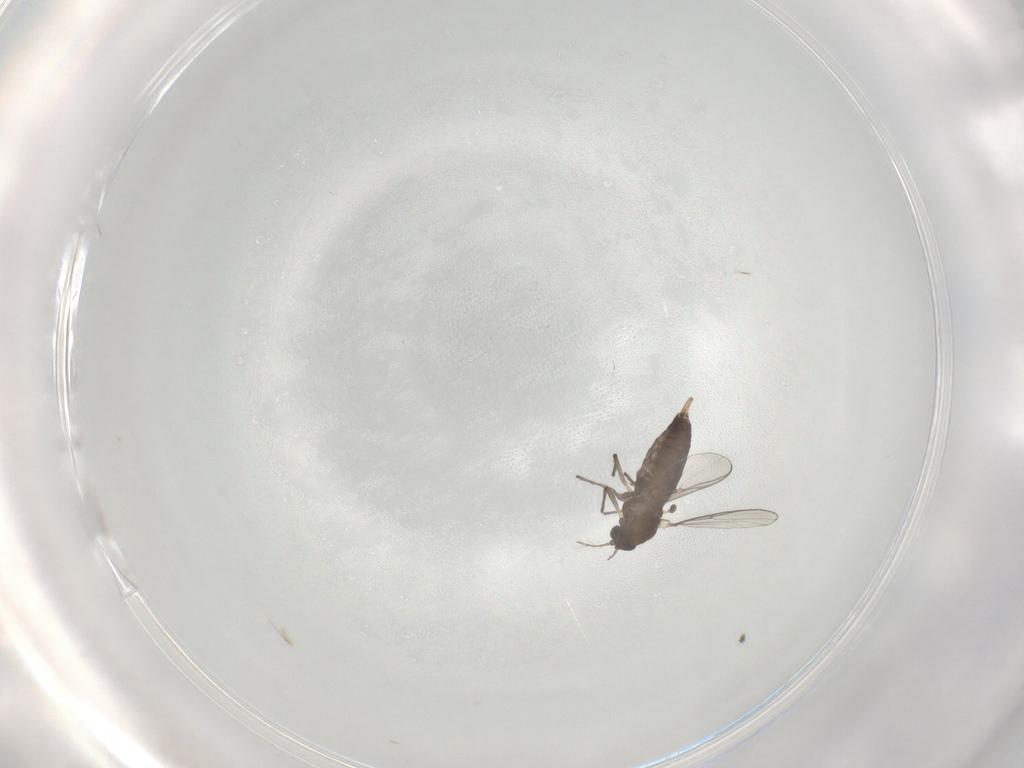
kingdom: Animalia
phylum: Arthropoda
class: Insecta
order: Diptera
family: Chironomidae
